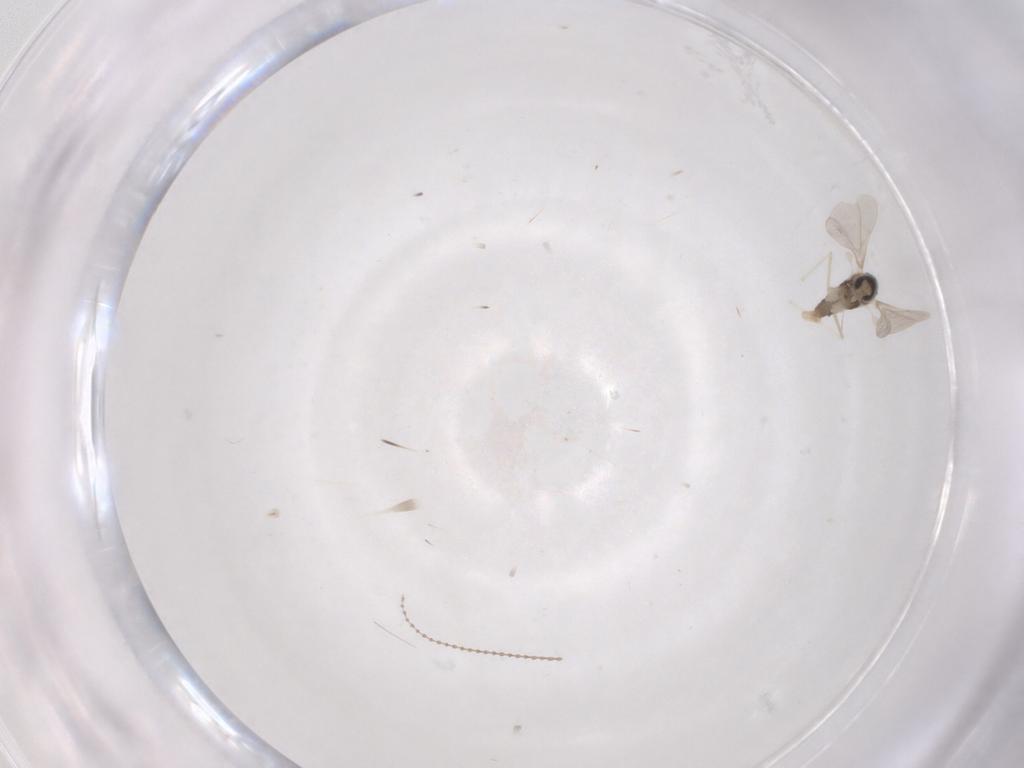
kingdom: Animalia
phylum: Arthropoda
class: Insecta
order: Diptera
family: Cecidomyiidae
